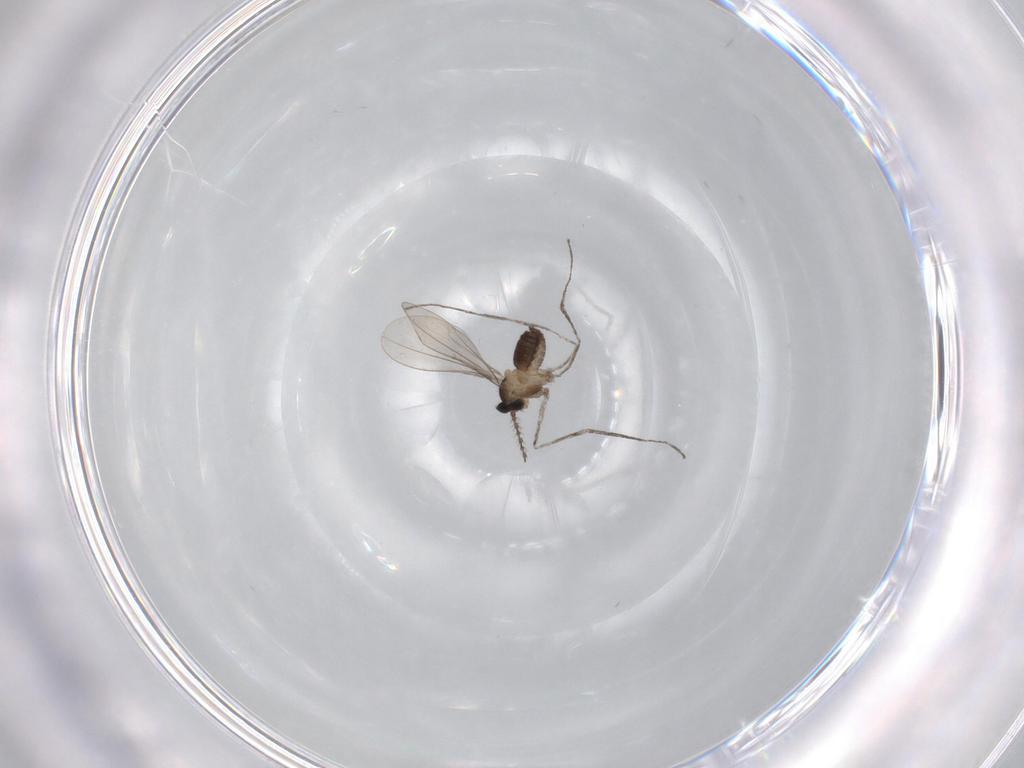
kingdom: Animalia
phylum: Arthropoda
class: Insecta
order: Diptera
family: Cecidomyiidae
